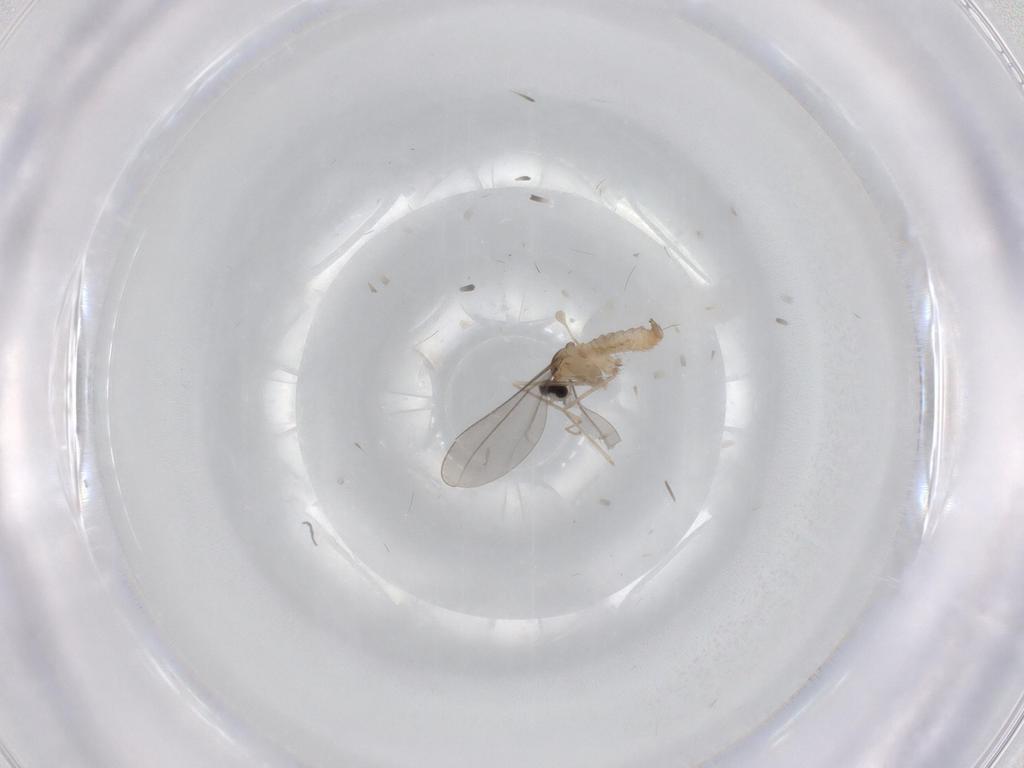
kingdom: Animalia
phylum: Arthropoda
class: Insecta
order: Diptera
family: Cecidomyiidae
